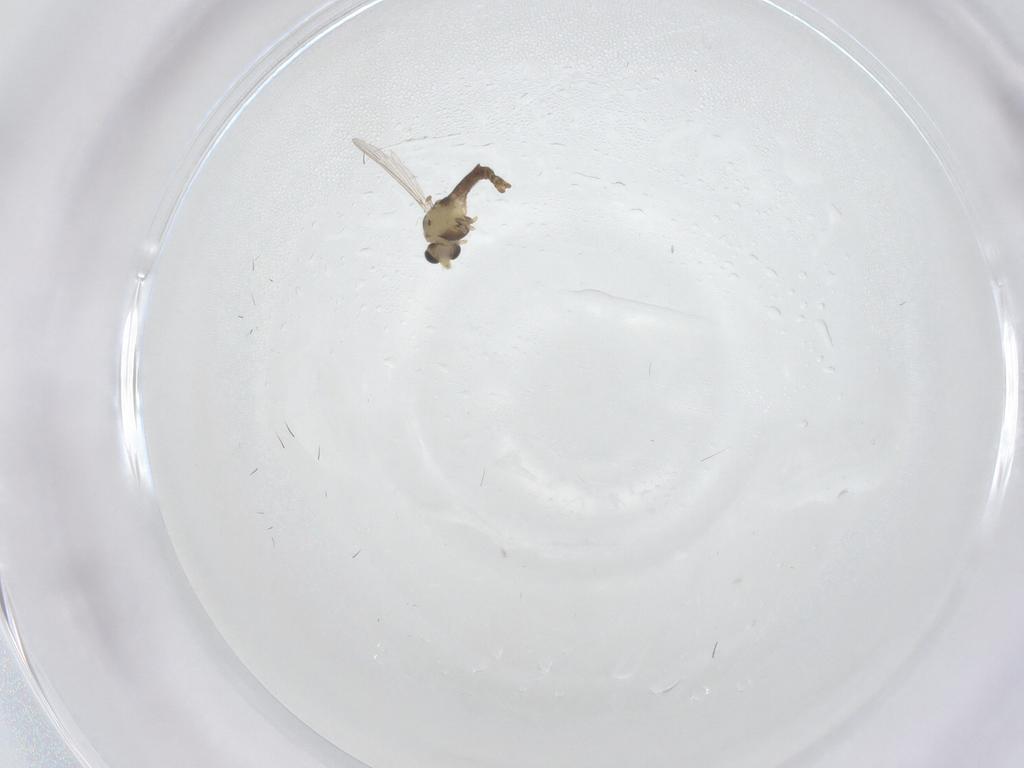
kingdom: Animalia
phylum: Arthropoda
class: Insecta
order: Diptera
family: Chironomidae
